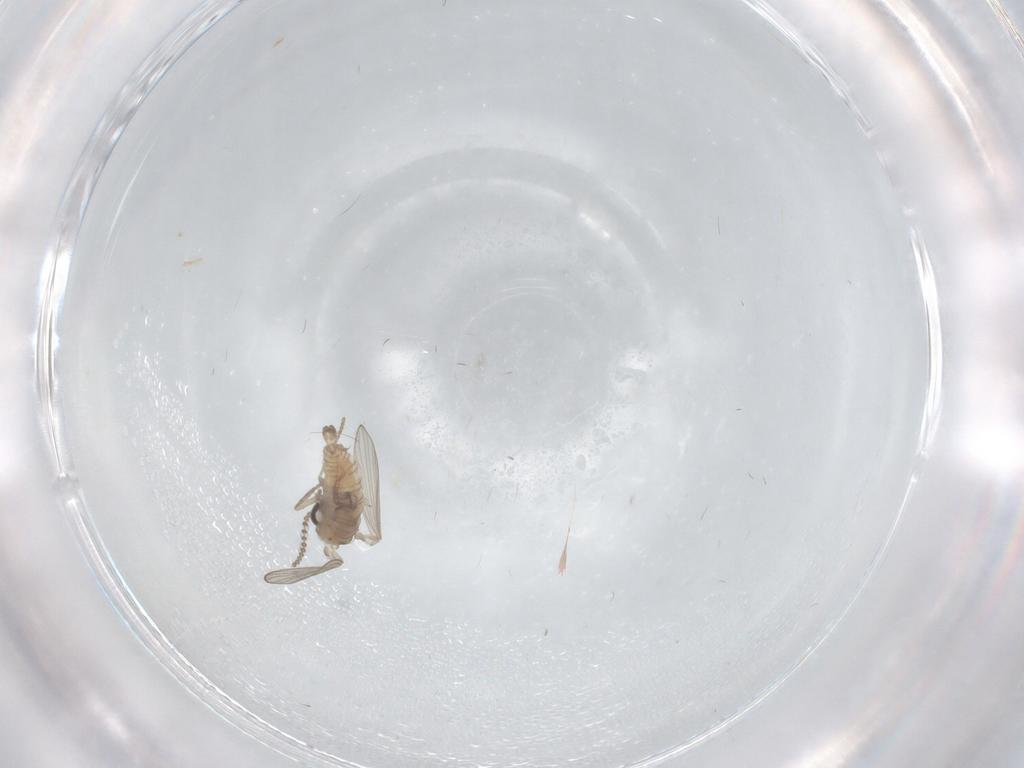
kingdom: Animalia
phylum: Arthropoda
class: Insecta
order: Diptera
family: Psychodidae
